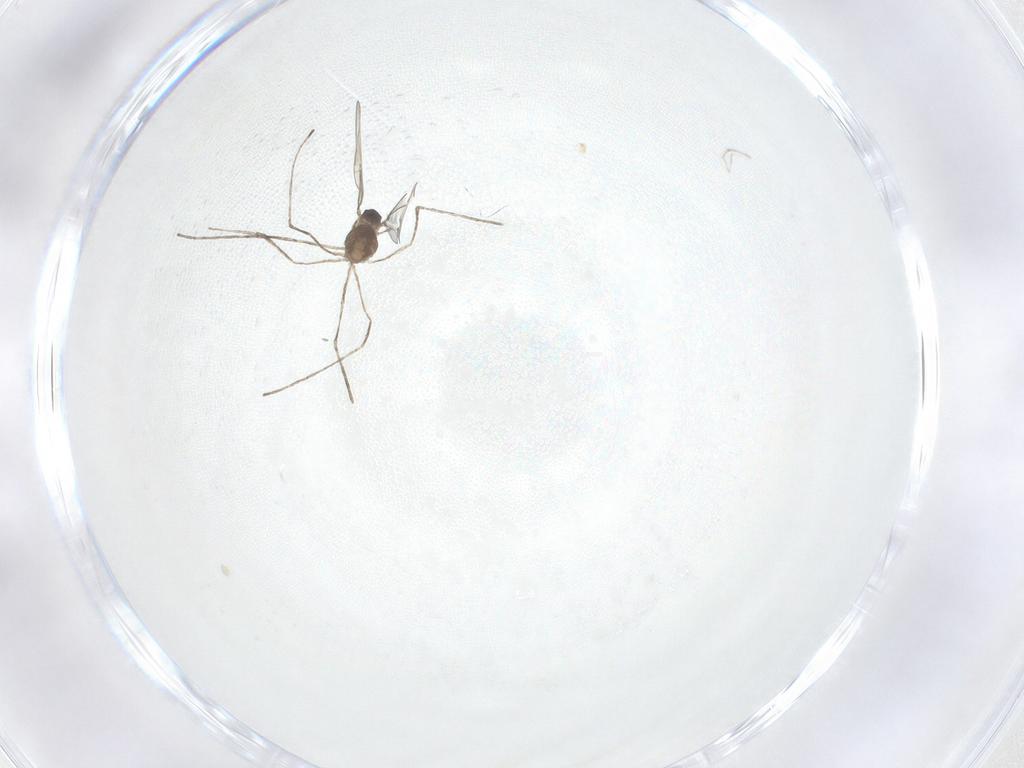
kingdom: Animalia
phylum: Arthropoda
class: Insecta
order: Diptera
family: Cecidomyiidae
